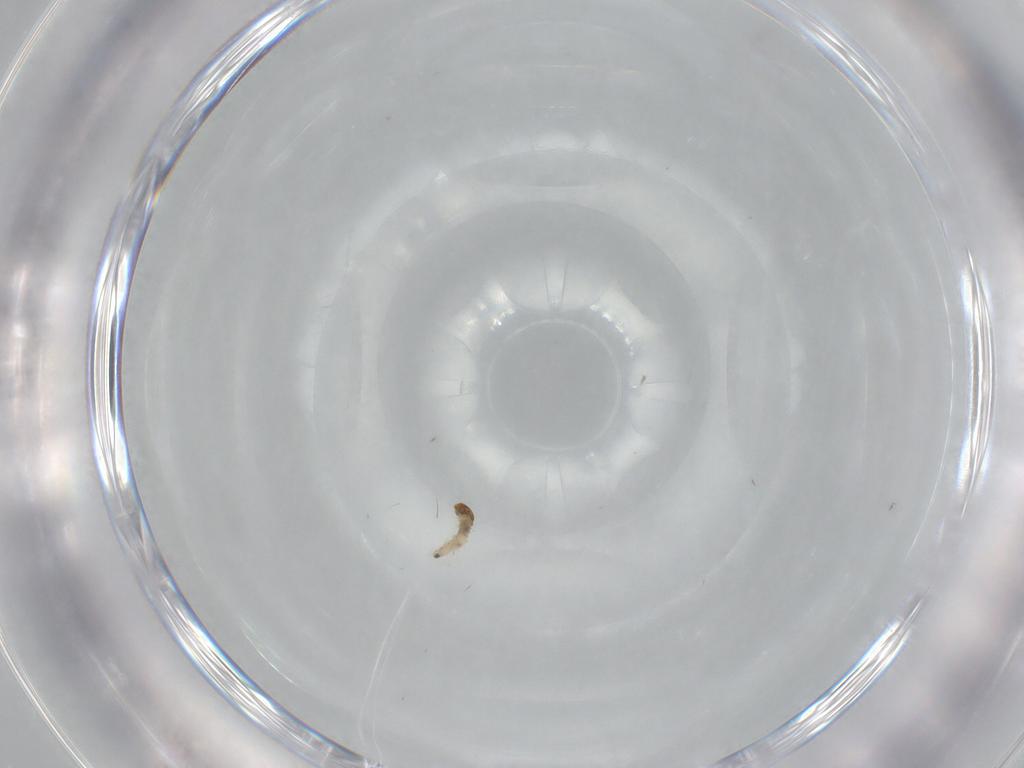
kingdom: Animalia
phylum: Arthropoda
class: Insecta
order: Lepidoptera
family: Tineidae
